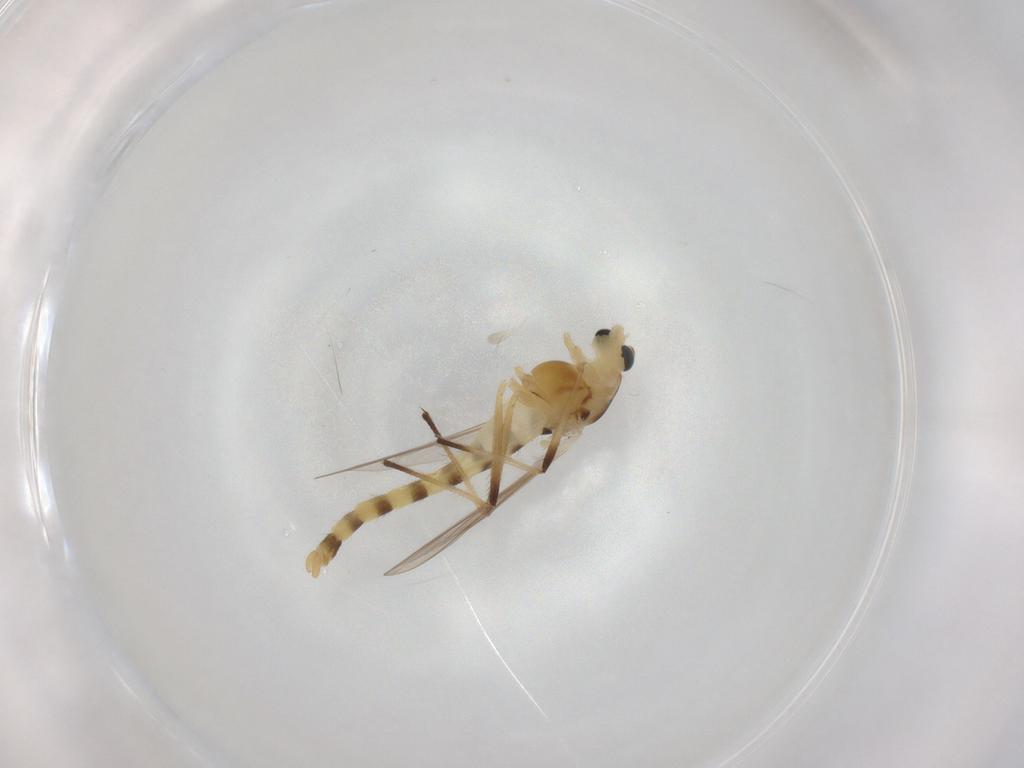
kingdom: Animalia
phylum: Arthropoda
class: Insecta
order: Diptera
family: Chironomidae
